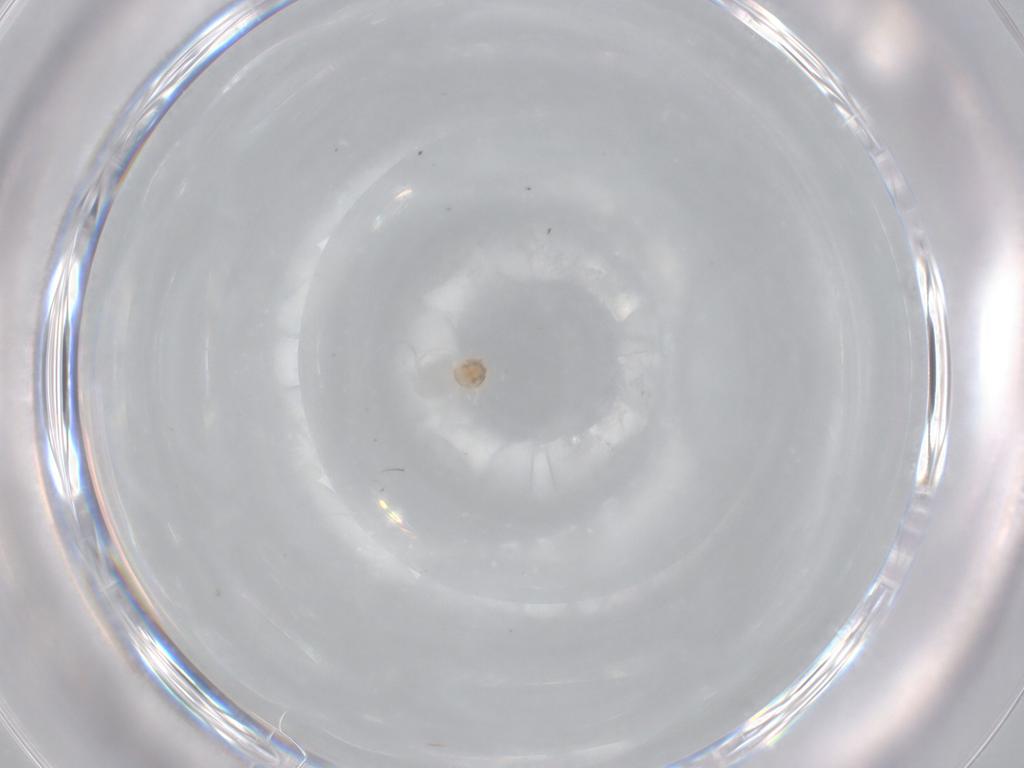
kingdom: Animalia
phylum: Arthropoda
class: Arachnida
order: Trombidiformes
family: Scutacaridae
